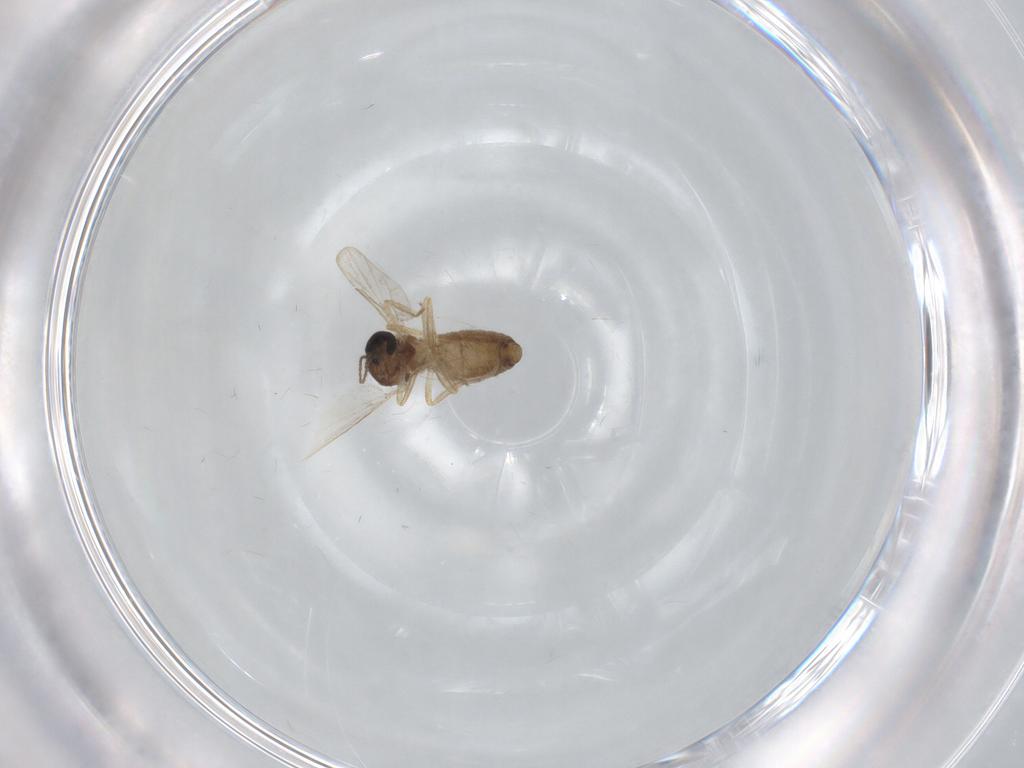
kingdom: Animalia
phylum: Arthropoda
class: Insecta
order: Diptera
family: Ceratopogonidae
